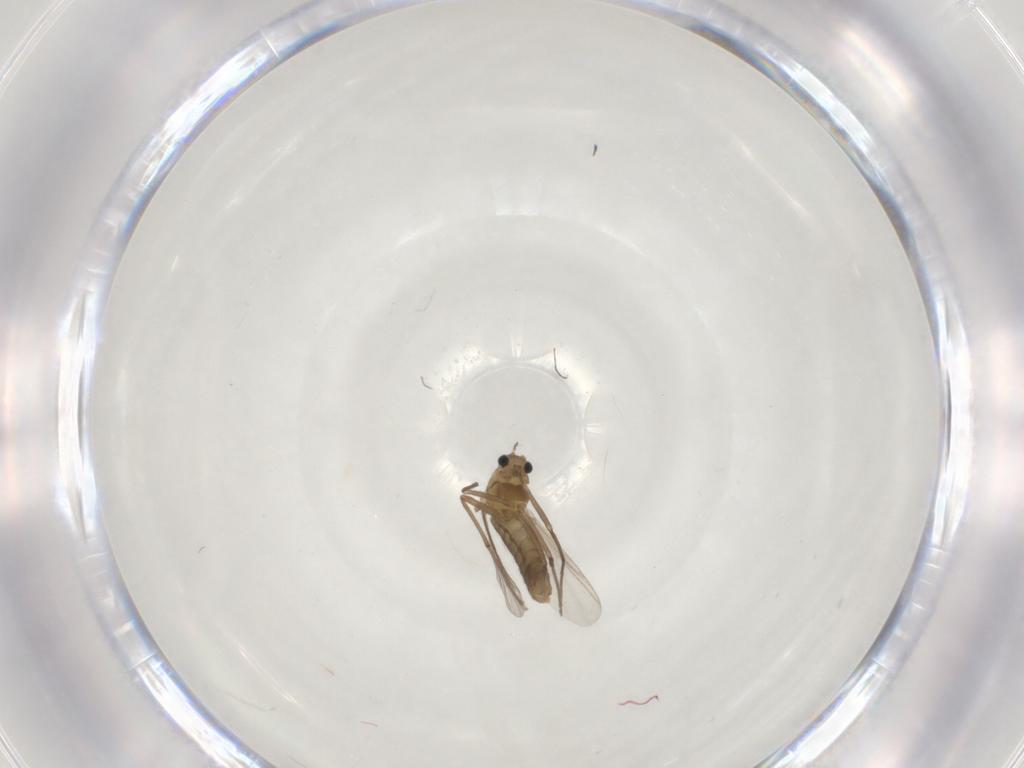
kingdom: Animalia
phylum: Arthropoda
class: Insecta
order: Diptera
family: Chironomidae
